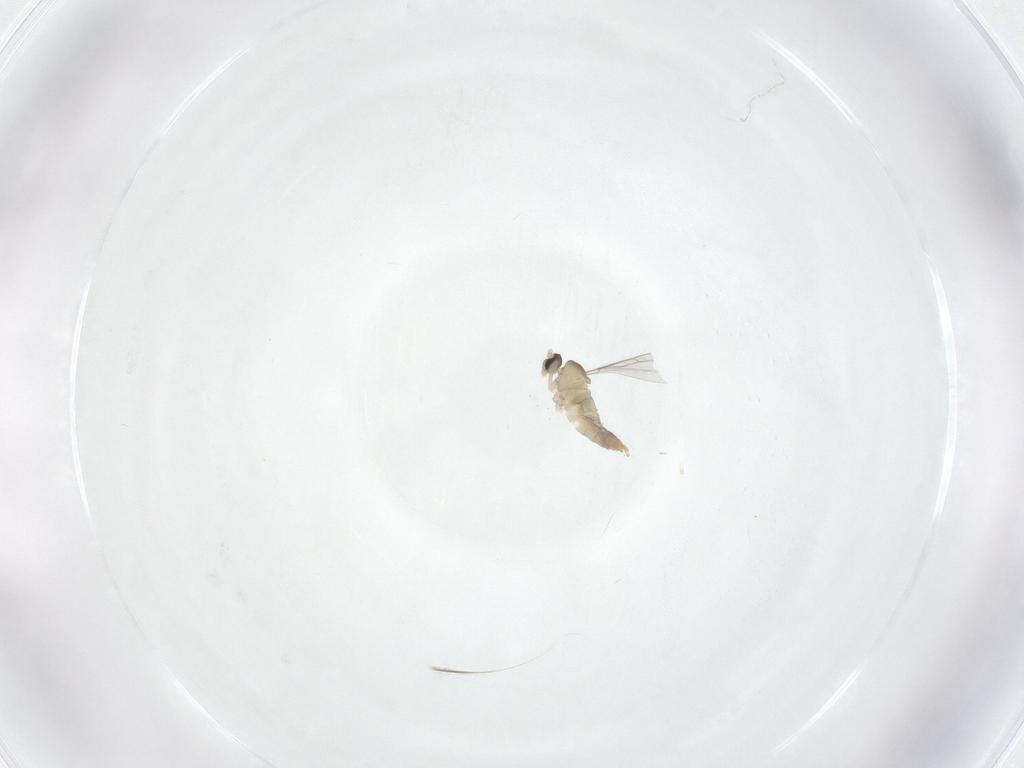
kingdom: Animalia
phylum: Arthropoda
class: Insecta
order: Diptera
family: Cecidomyiidae
